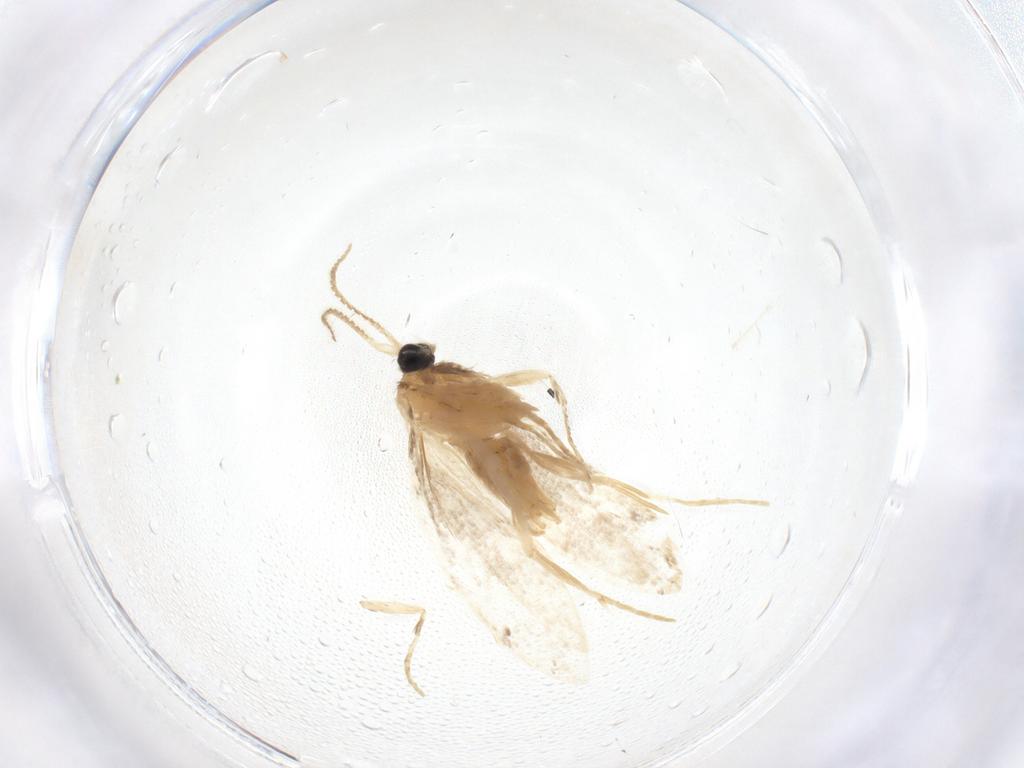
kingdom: Animalia
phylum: Arthropoda
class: Insecta
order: Lepidoptera
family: Psychidae
